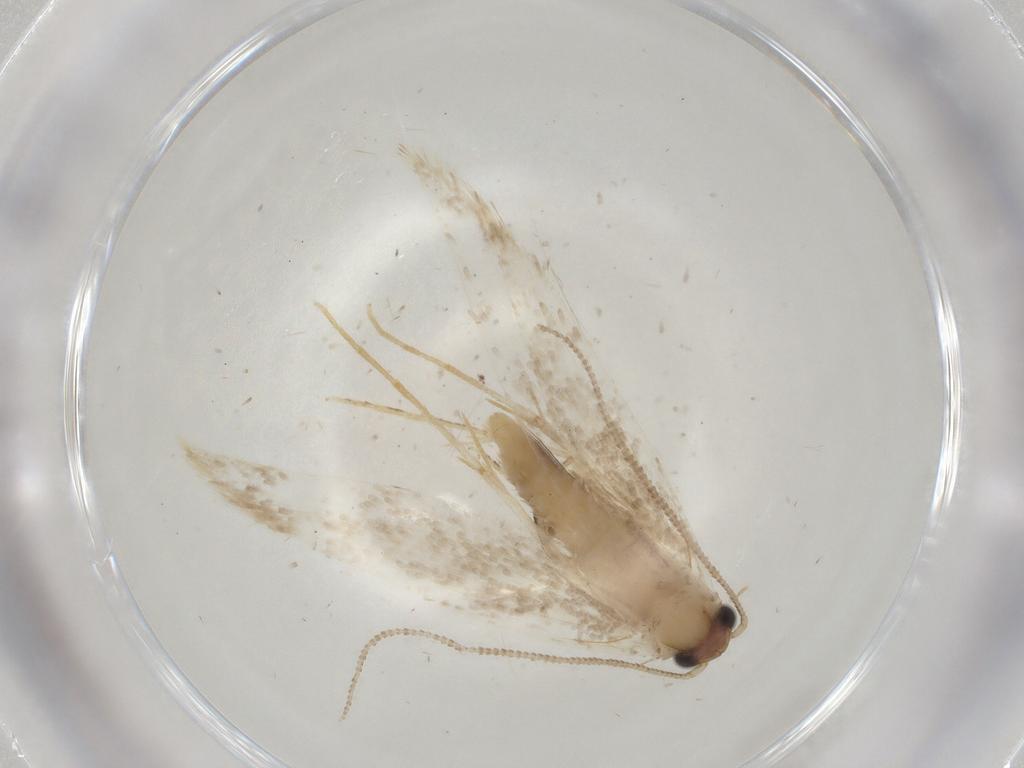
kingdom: Animalia
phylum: Arthropoda
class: Insecta
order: Lepidoptera
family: Tineidae
